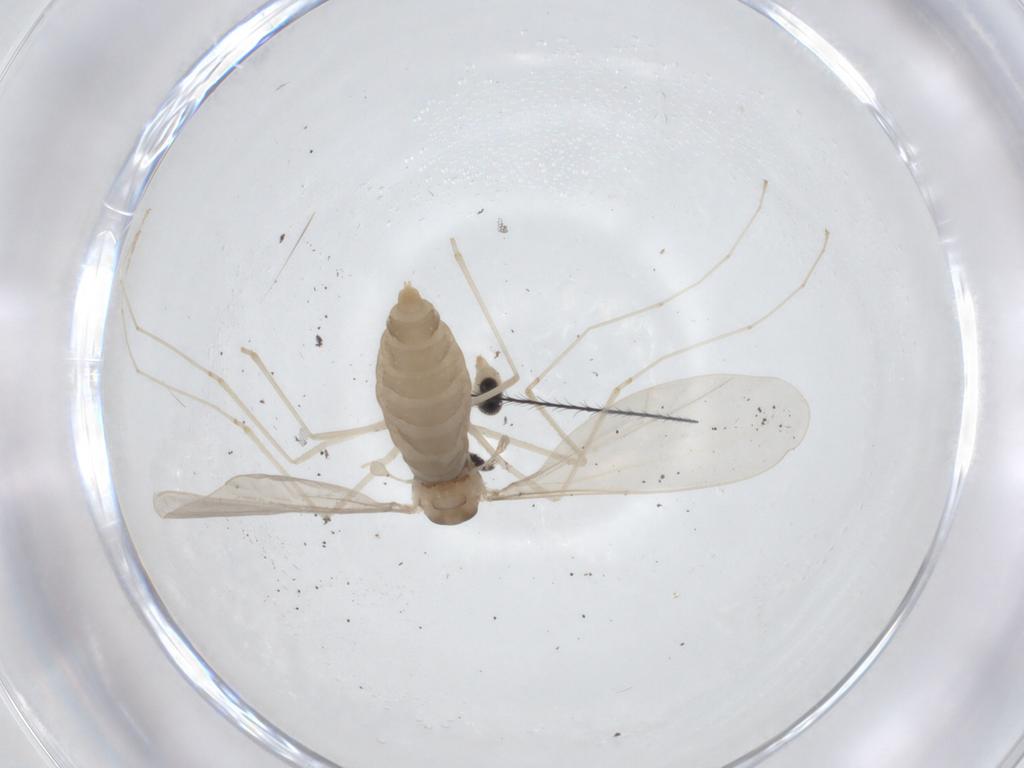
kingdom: Animalia
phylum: Arthropoda
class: Insecta
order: Diptera
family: Cecidomyiidae
